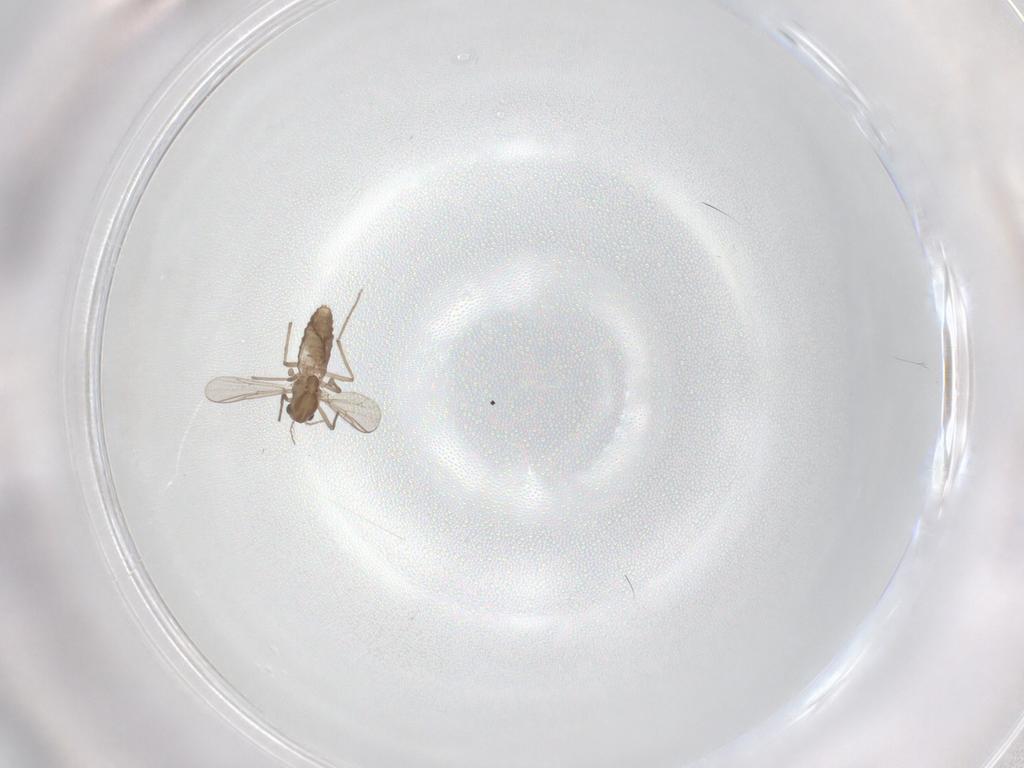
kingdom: Animalia
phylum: Arthropoda
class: Insecta
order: Diptera
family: Chironomidae
